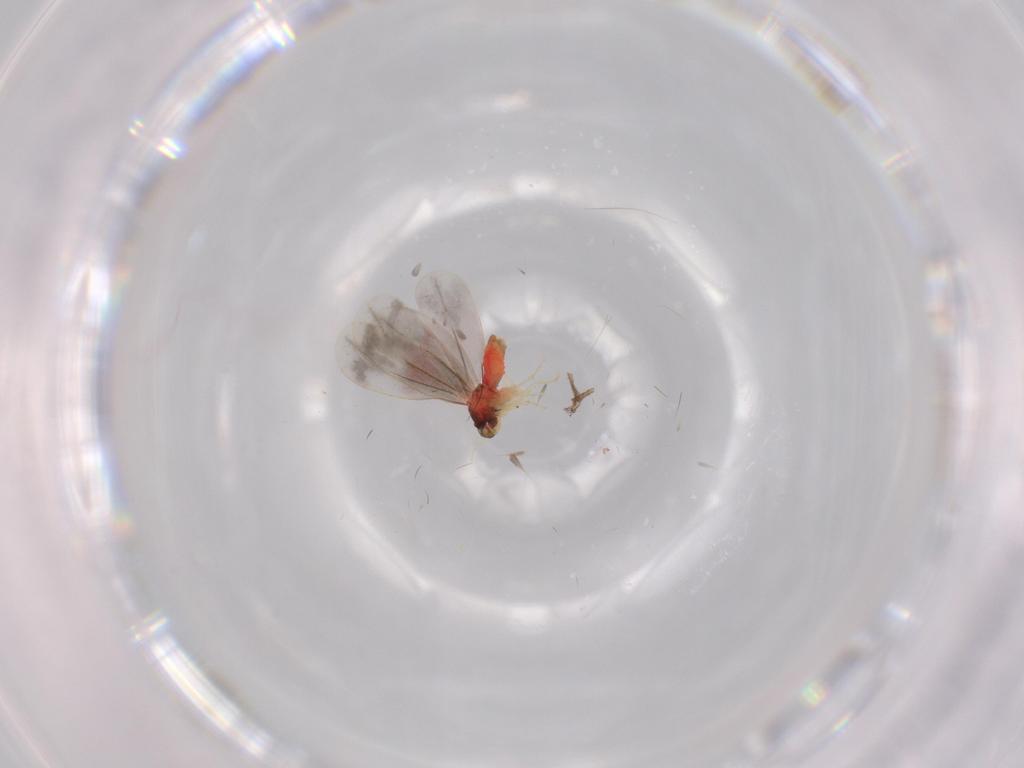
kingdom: Animalia
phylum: Arthropoda
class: Insecta
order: Hemiptera
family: Aleyrodidae
